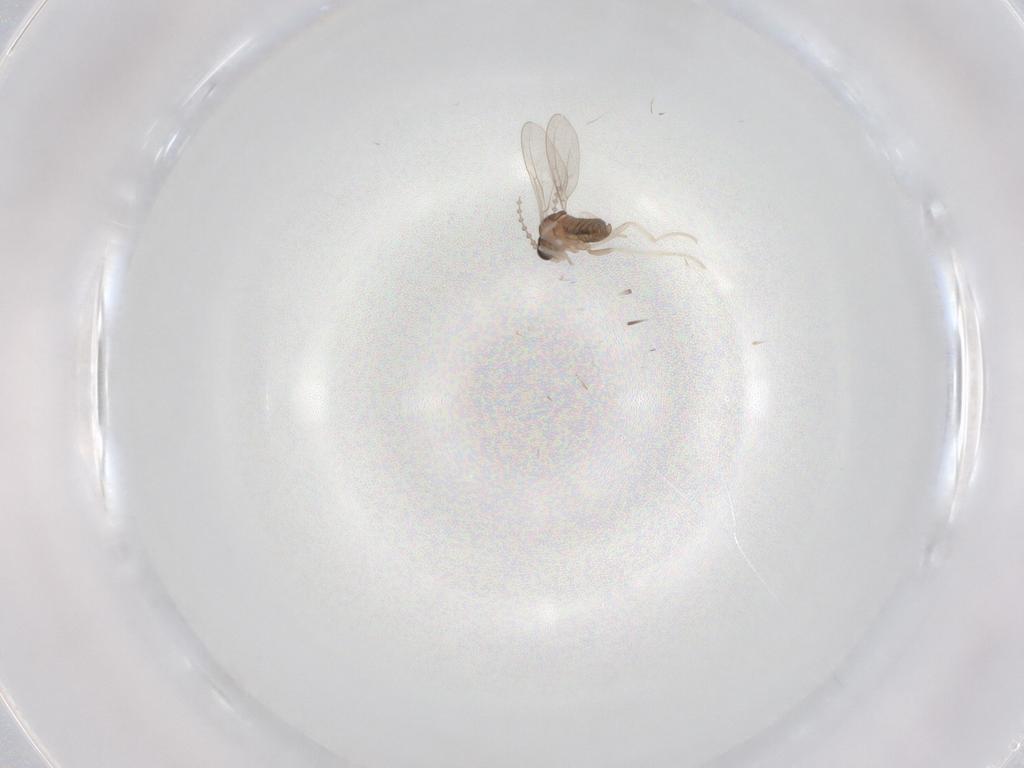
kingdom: Animalia
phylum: Arthropoda
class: Insecta
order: Diptera
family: Cecidomyiidae
